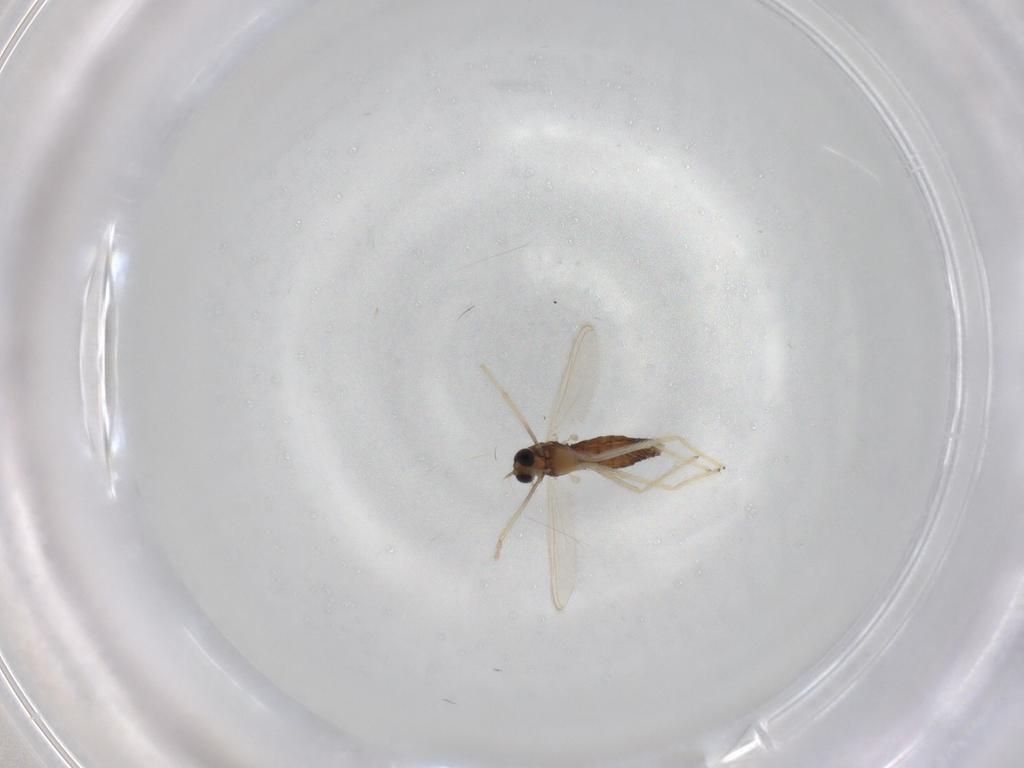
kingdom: Animalia
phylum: Arthropoda
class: Insecta
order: Diptera
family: Chironomidae
